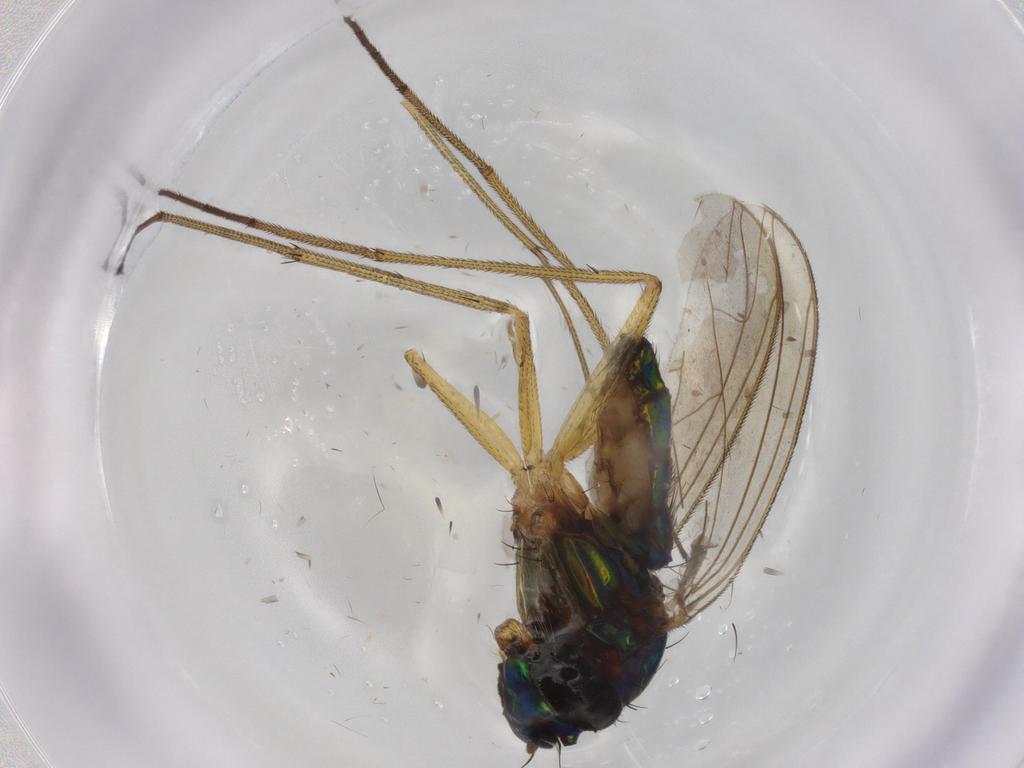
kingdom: Animalia
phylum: Arthropoda
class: Insecta
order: Diptera
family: Dolichopodidae
